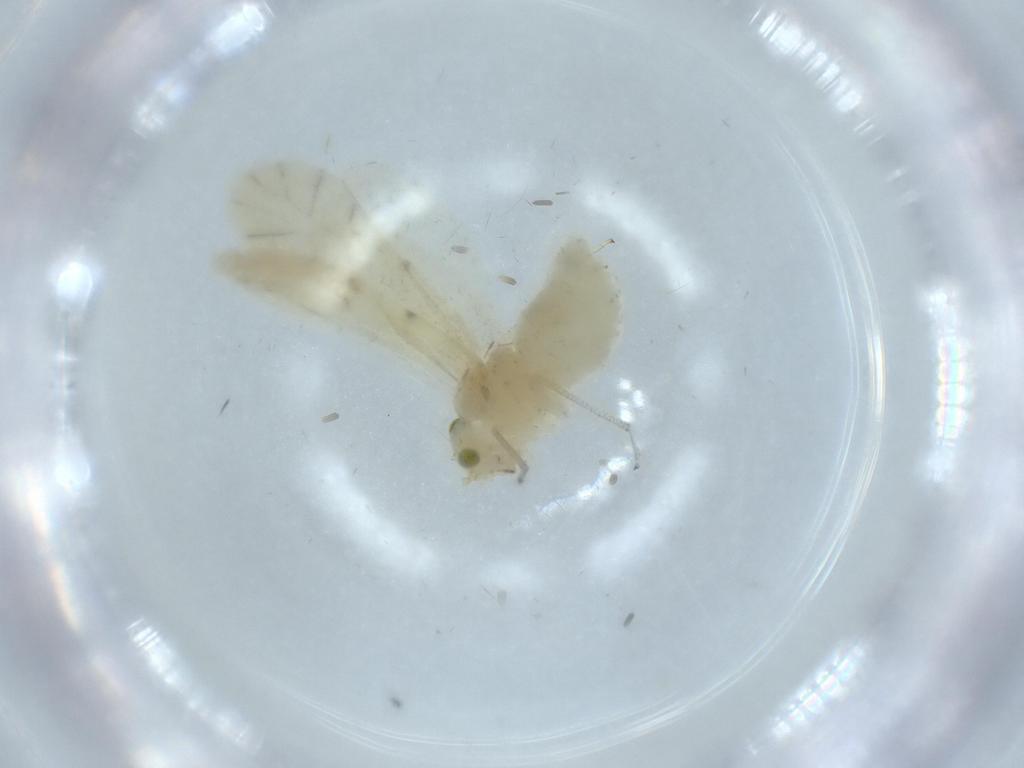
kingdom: Animalia
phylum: Arthropoda
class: Insecta
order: Psocodea
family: Caeciliusidae
